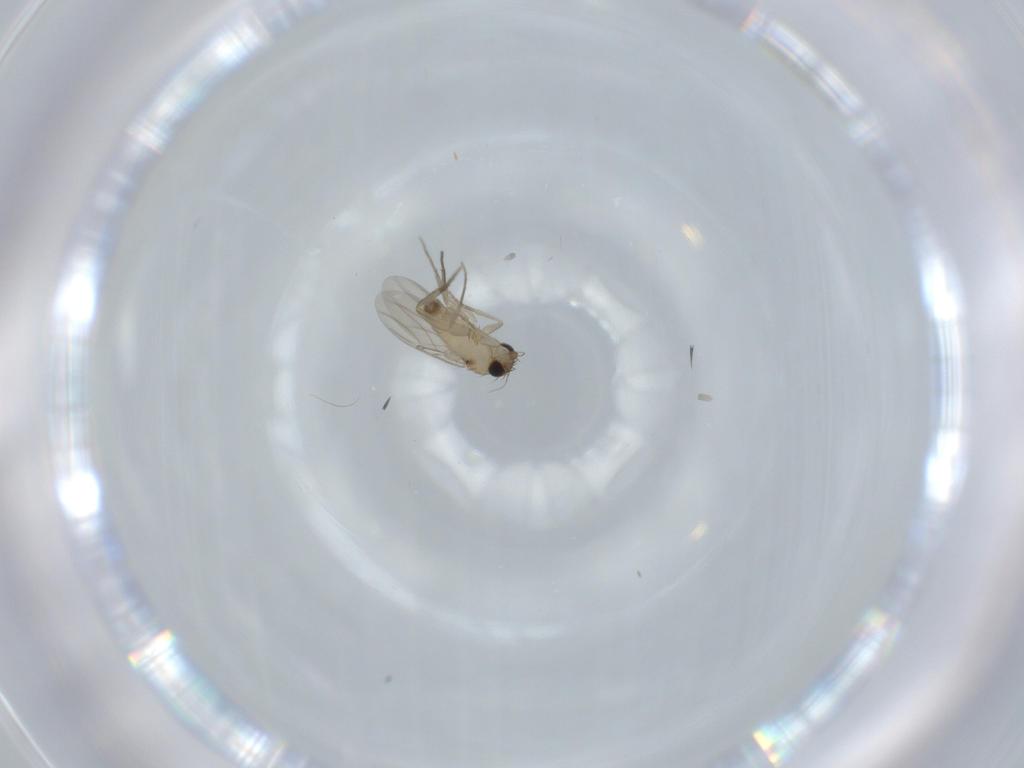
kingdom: Animalia
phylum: Arthropoda
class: Insecta
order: Diptera
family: Phoridae
